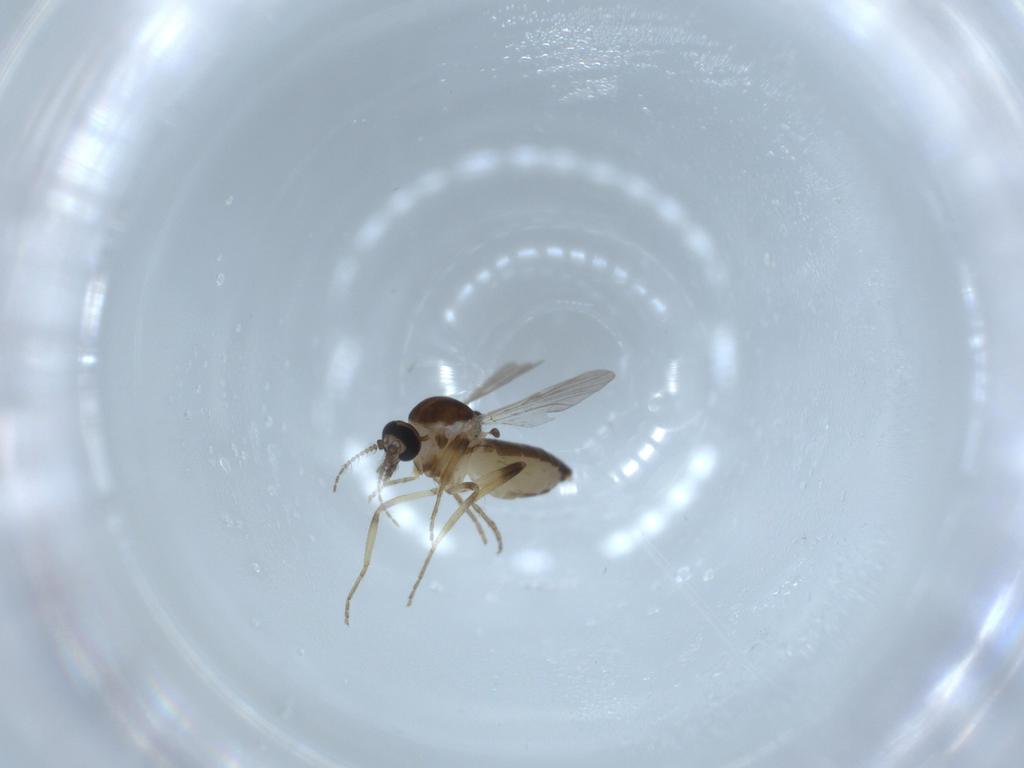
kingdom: Animalia
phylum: Arthropoda
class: Insecta
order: Diptera
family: Ceratopogonidae
